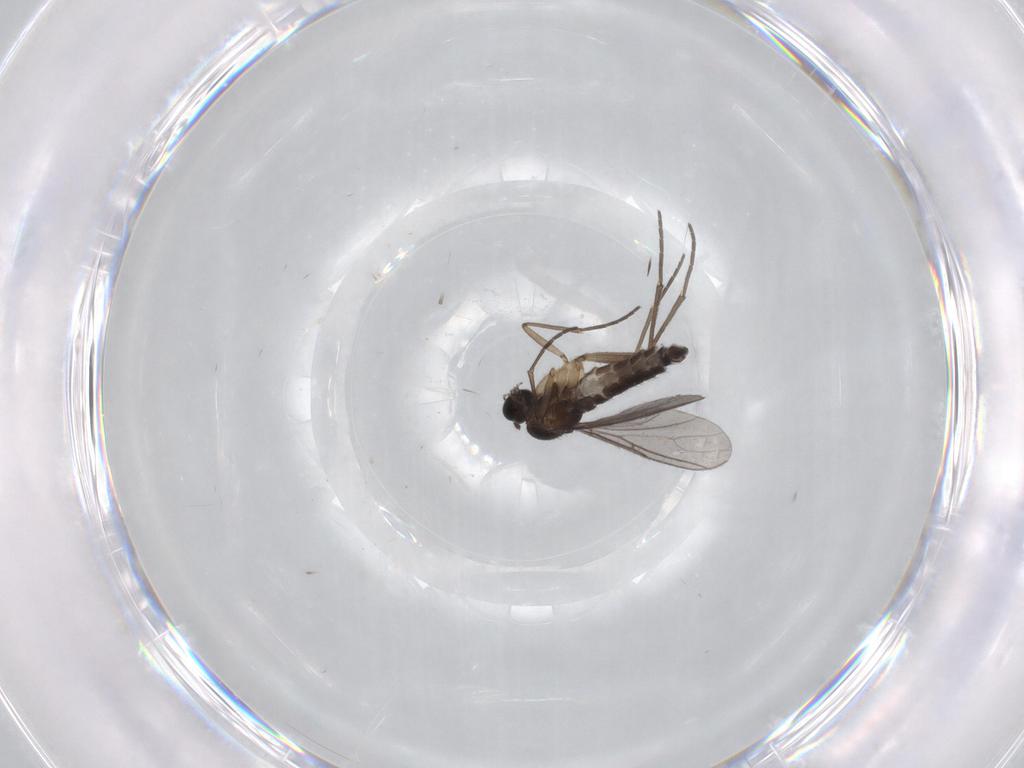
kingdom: Animalia
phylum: Arthropoda
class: Insecta
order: Diptera
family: Sciaridae
